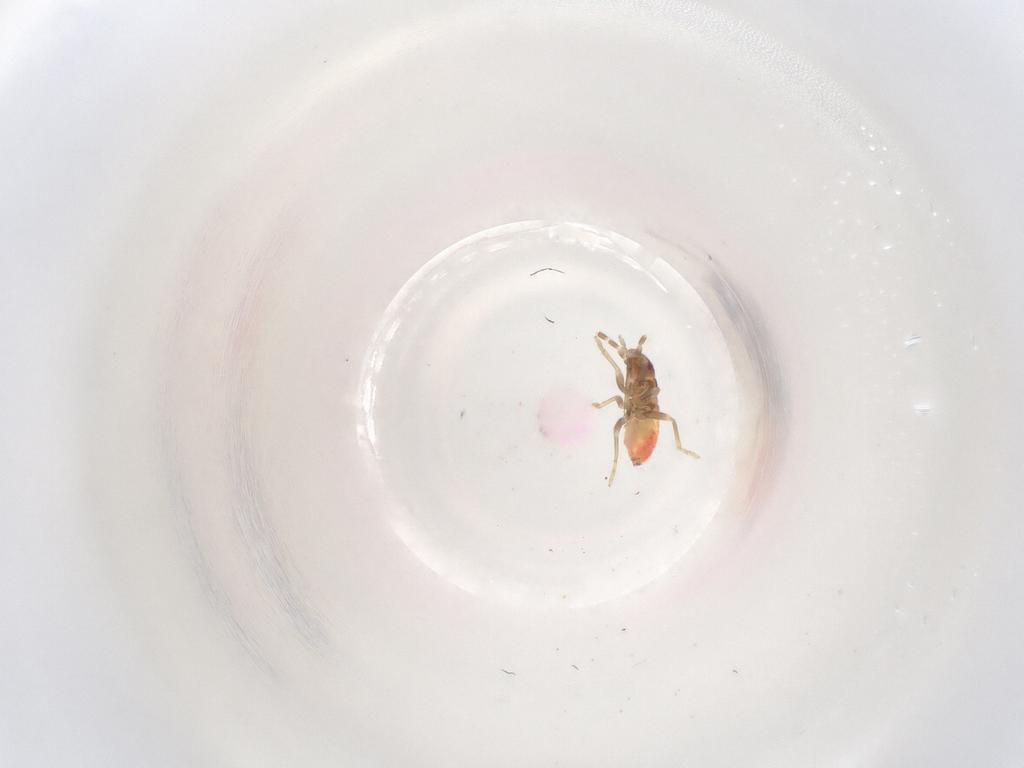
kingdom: Animalia
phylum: Arthropoda
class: Insecta
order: Hemiptera
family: Rhyparochromidae
